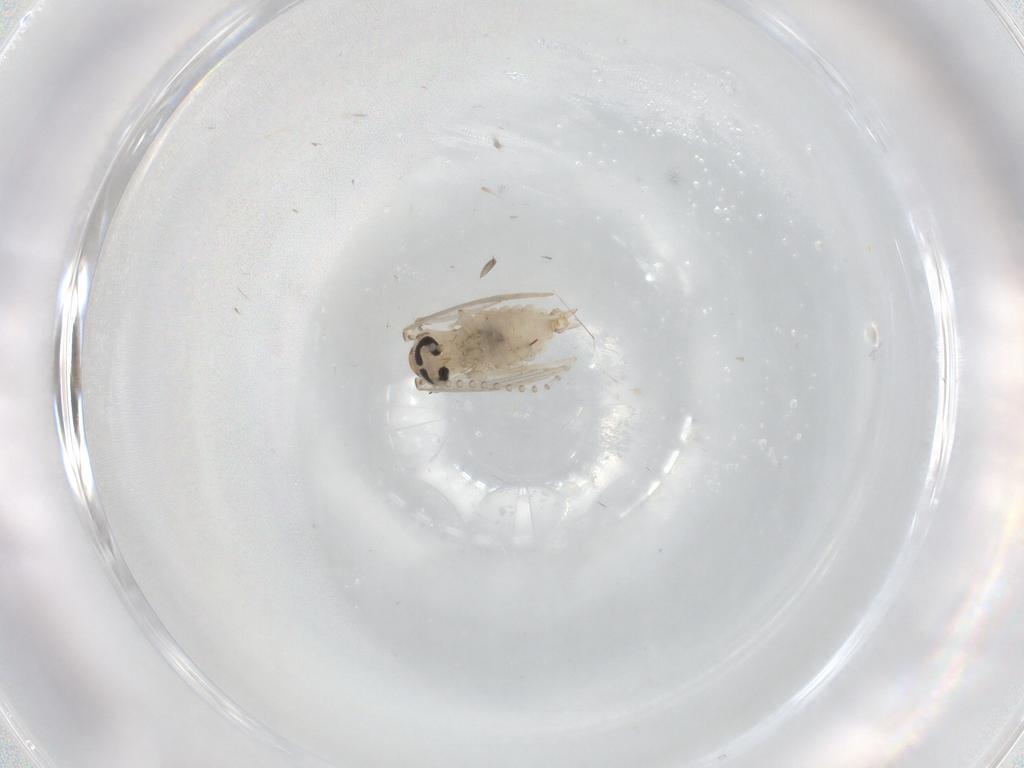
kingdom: Animalia
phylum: Arthropoda
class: Insecta
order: Diptera
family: Psychodidae
